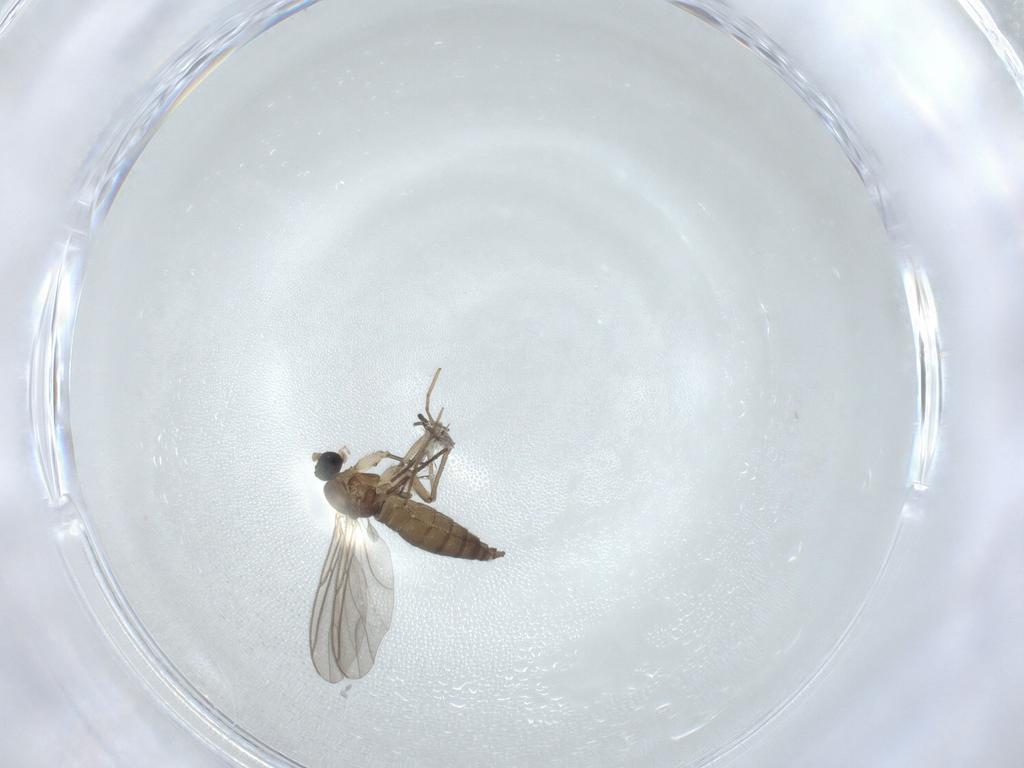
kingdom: Animalia
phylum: Arthropoda
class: Insecta
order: Diptera
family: Sciaridae
